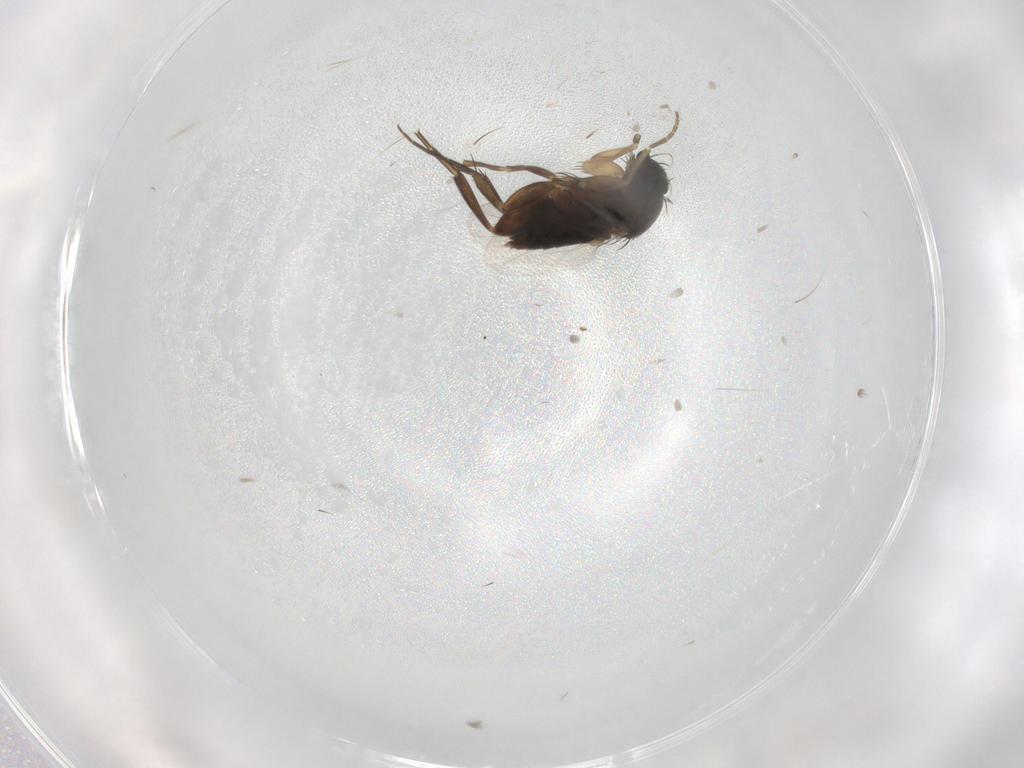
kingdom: Animalia
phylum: Arthropoda
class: Insecta
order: Diptera
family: Phoridae
